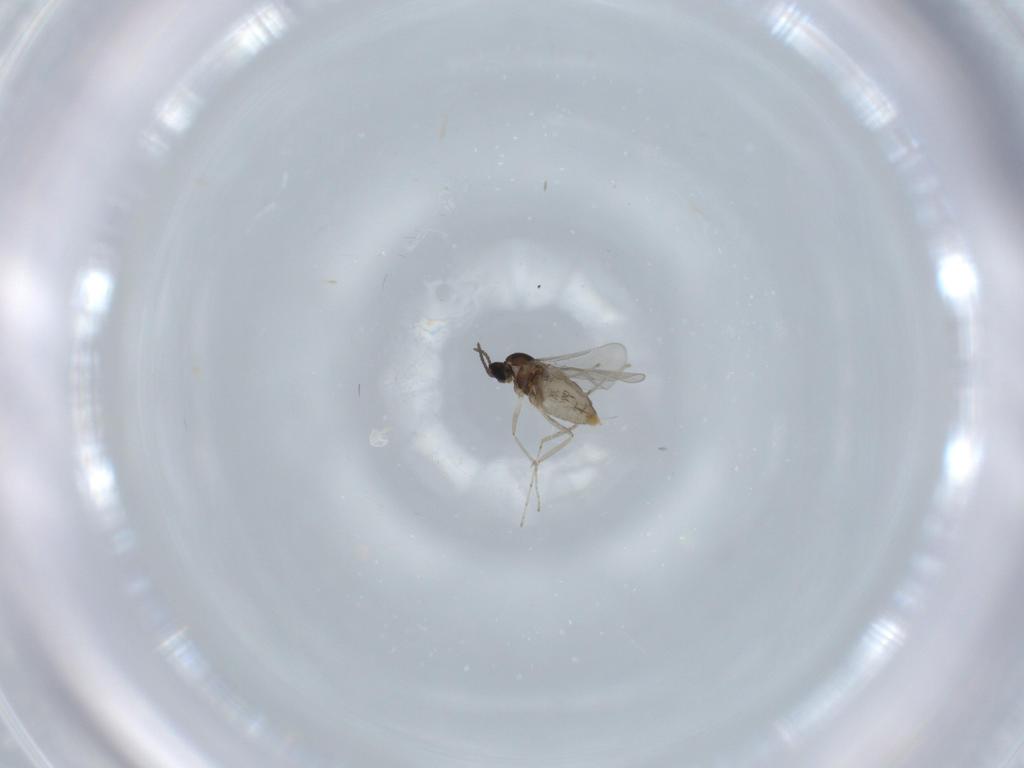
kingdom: Animalia
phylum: Arthropoda
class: Insecta
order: Diptera
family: Cecidomyiidae
